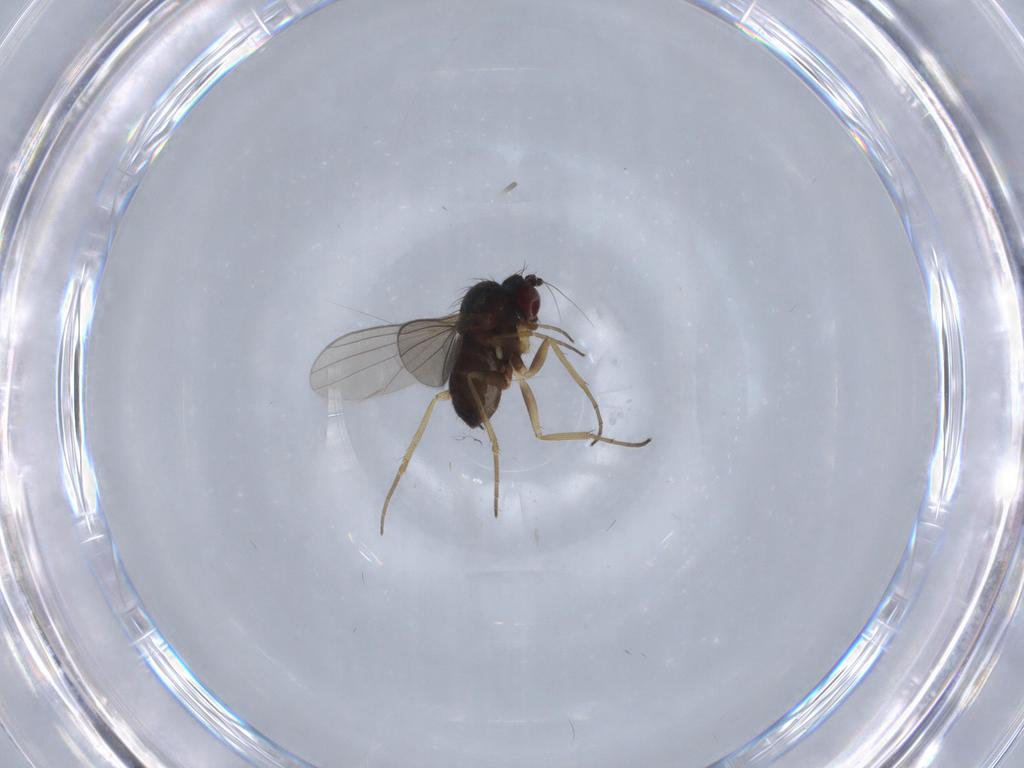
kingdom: Animalia
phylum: Arthropoda
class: Insecta
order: Diptera
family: Dolichopodidae
